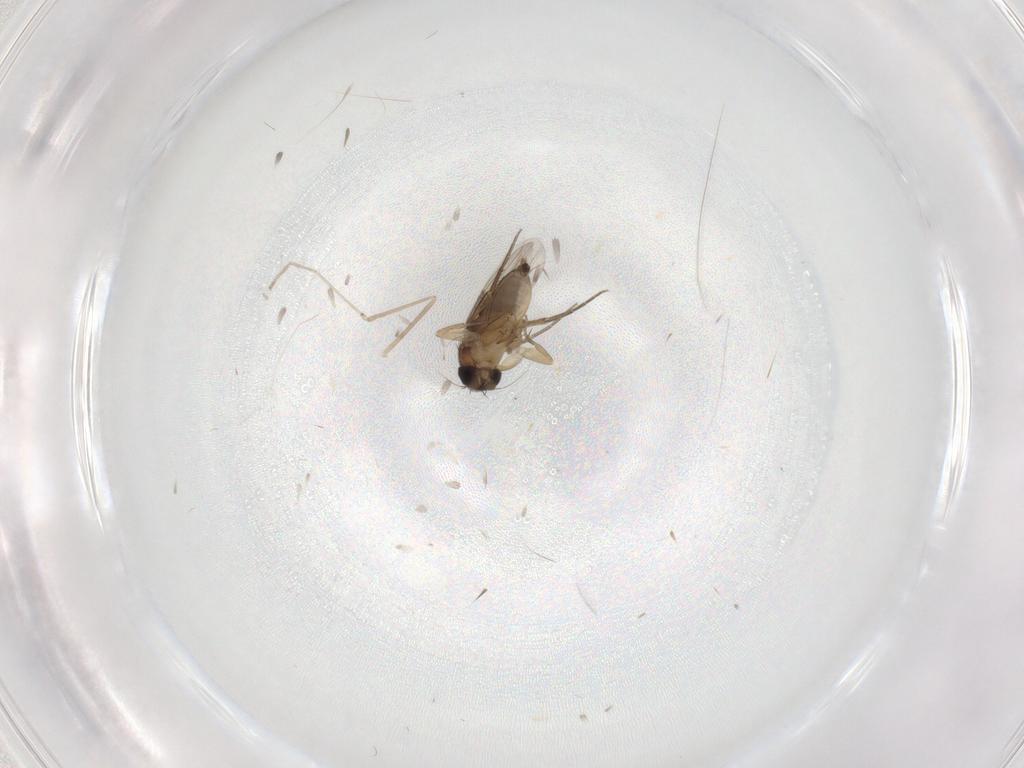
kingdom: Animalia
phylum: Arthropoda
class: Insecta
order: Diptera
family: Phoridae
